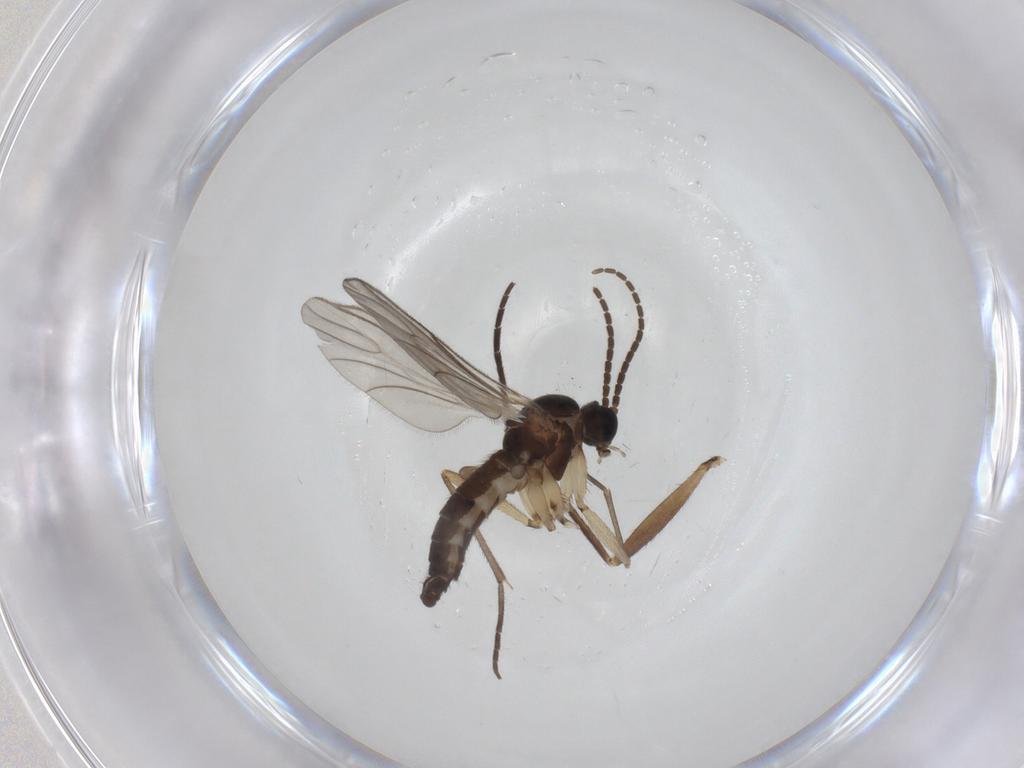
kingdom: Animalia
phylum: Arthropoda
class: Insecta
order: Diptera
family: Sciaridae
